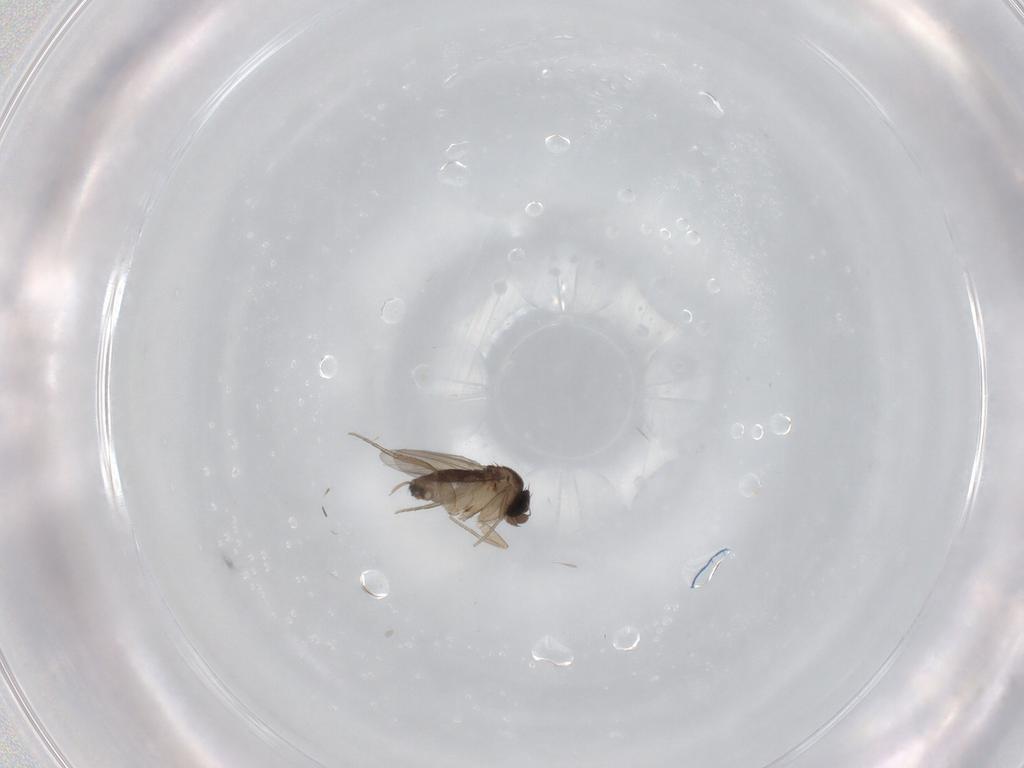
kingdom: Animalia
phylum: Arthropoda
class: Insecta
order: Diptera
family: Phoridae
